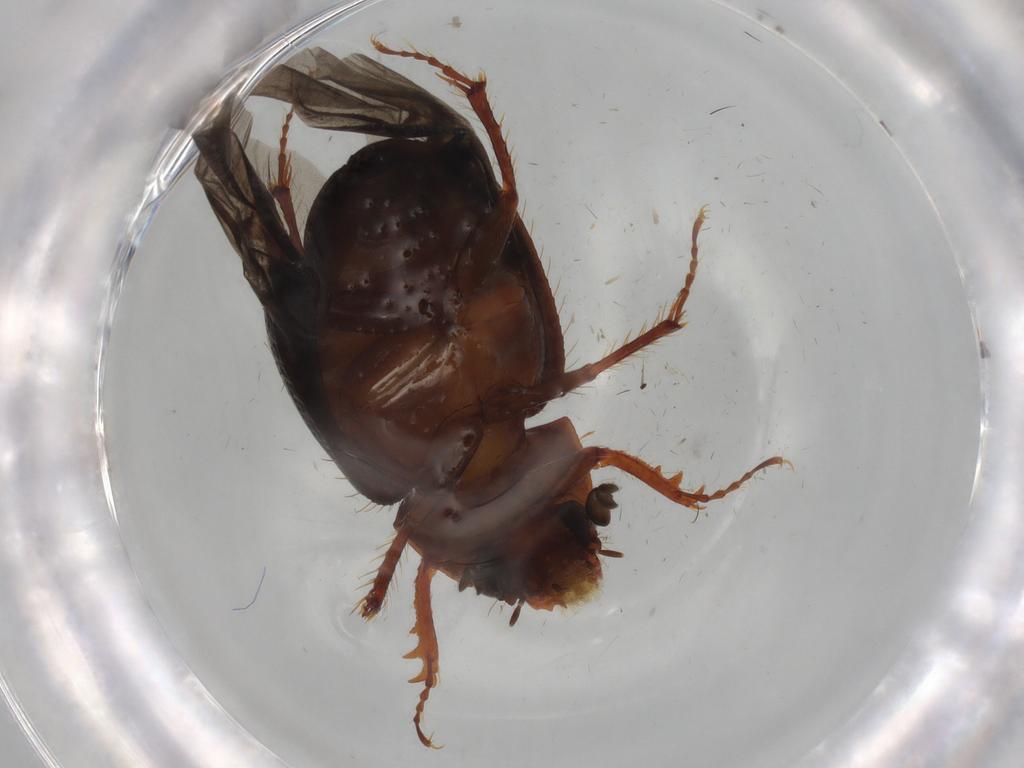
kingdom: Animalia
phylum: Arthropoda
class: Insecta
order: Coleoptera
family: Chrysomelidae
